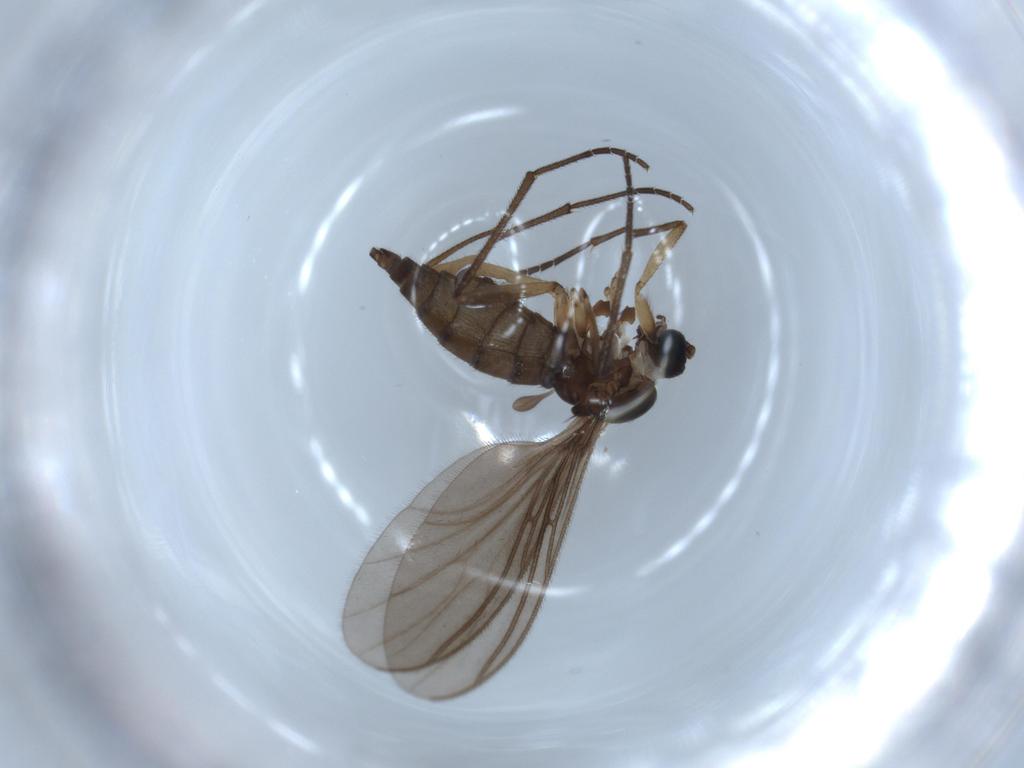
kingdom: Animalia
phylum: Arthropoda
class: Insecta
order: Diptera
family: Sciaridae
